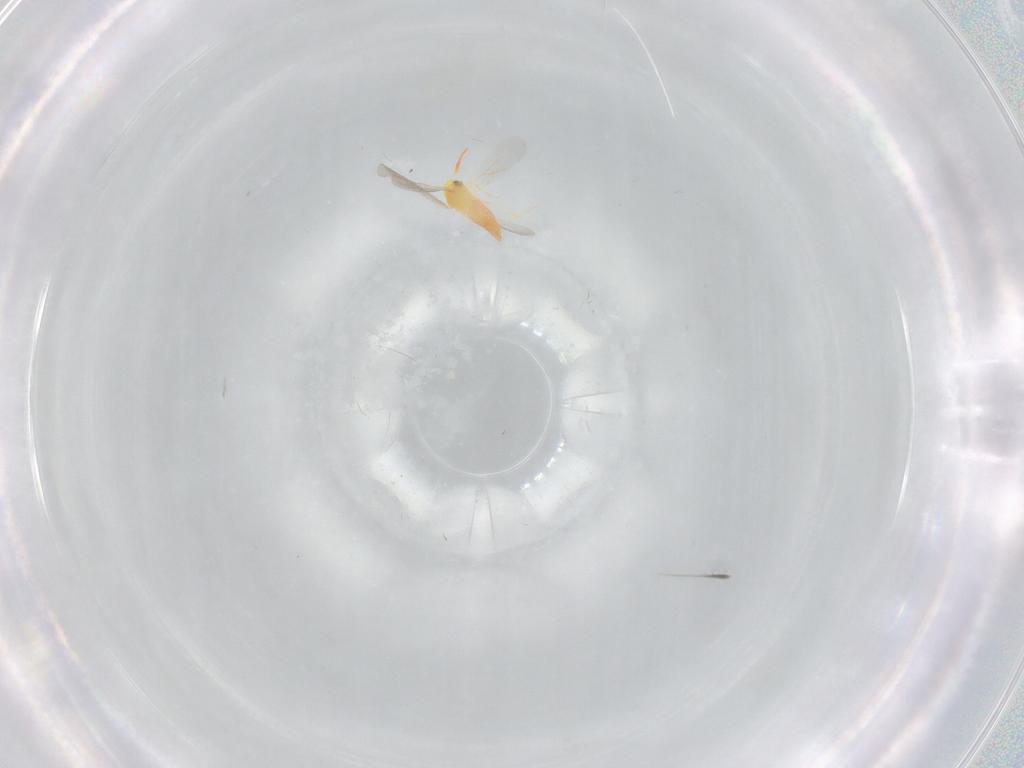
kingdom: Animalia
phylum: Arthropoda
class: Insecta
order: Hemiptera
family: Aleyrodidae
